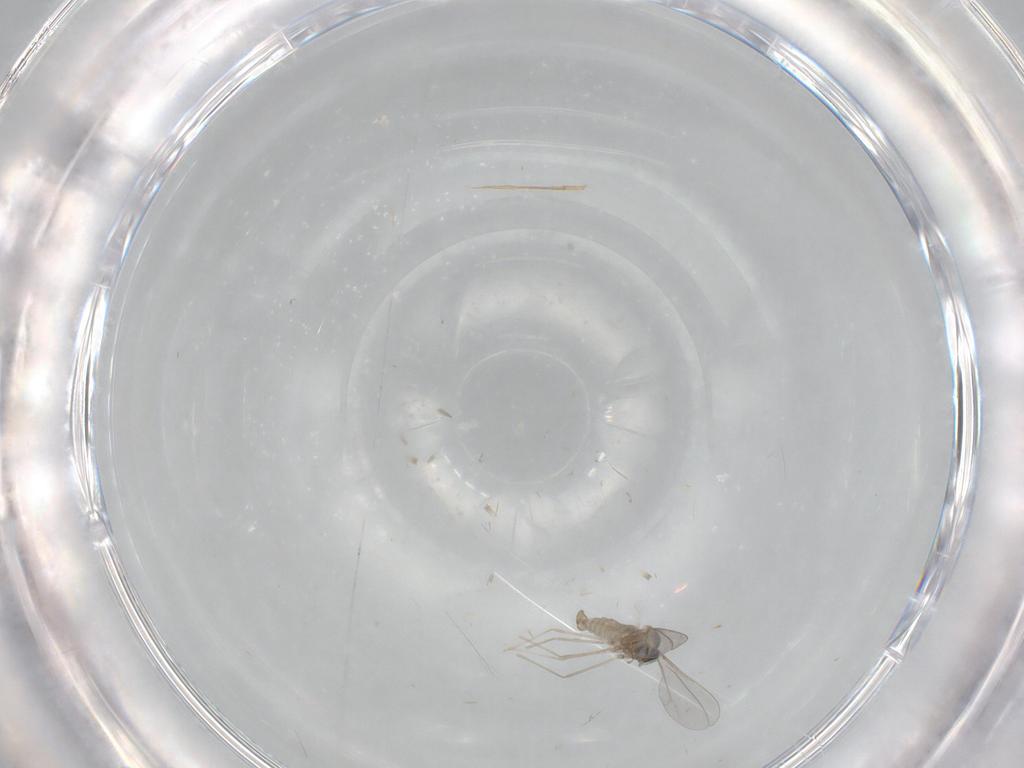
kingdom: Animalia
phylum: Arthropoda
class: Insecta
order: Diptera
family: Cecidomyiidae
